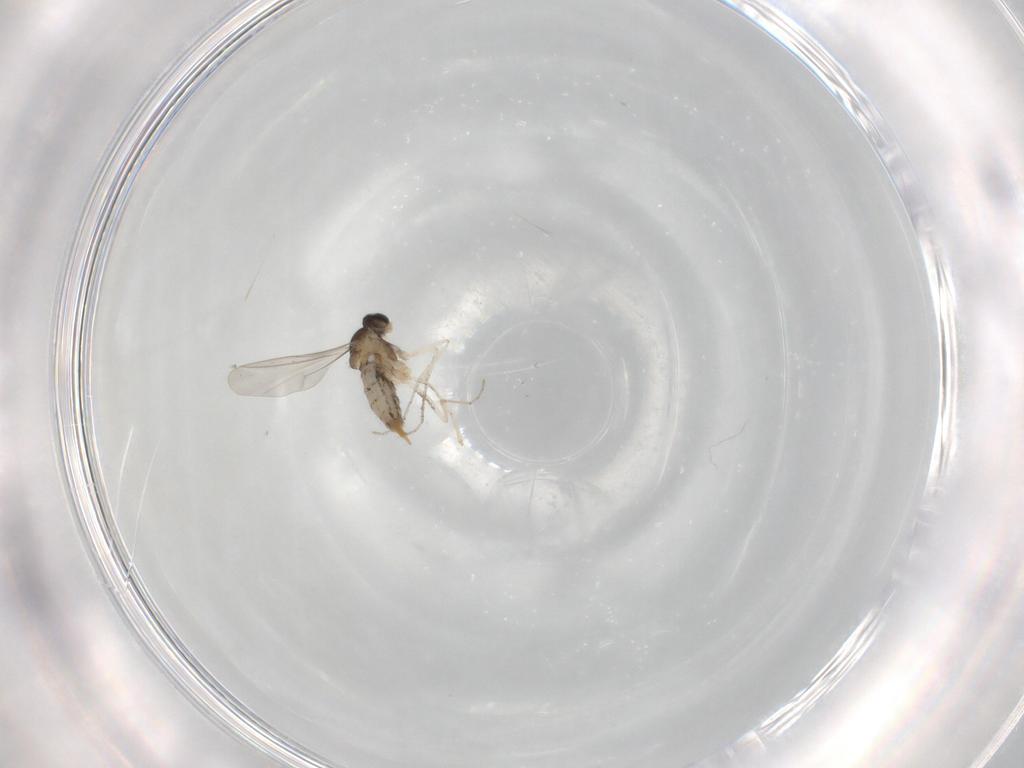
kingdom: Animalia
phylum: Arthropoda
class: Insecta
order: Diptera
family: Cecidomyiidae
